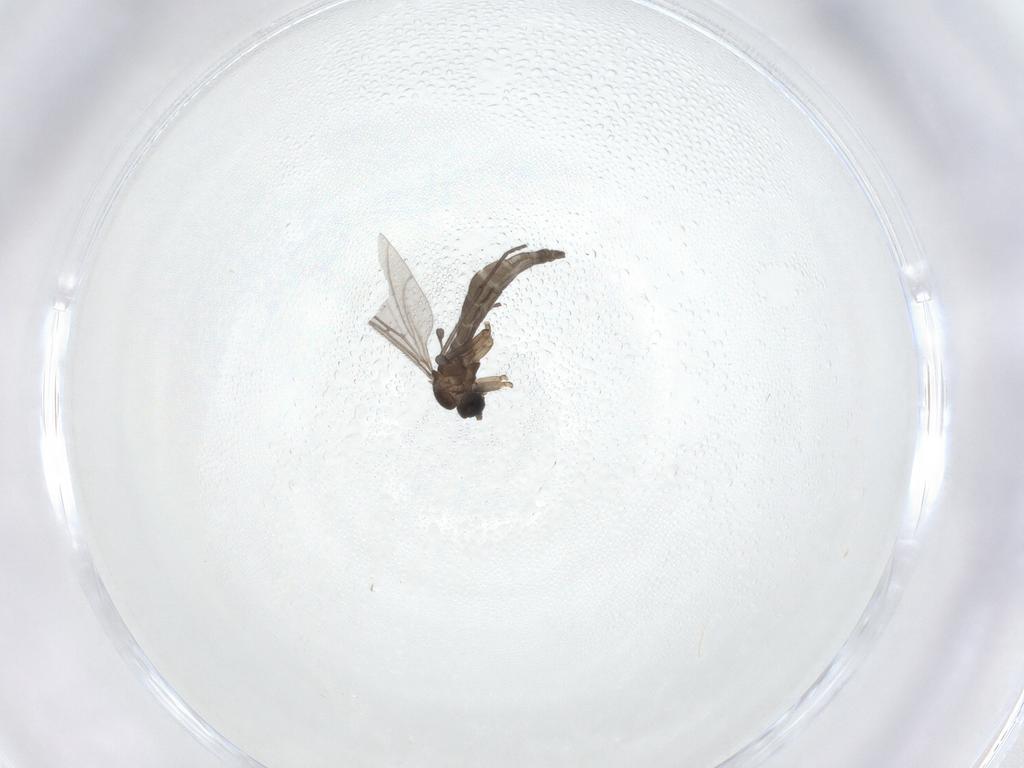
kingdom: Animalia
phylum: Arthropoda
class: Insecta
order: Diptera
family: Sciaridae
